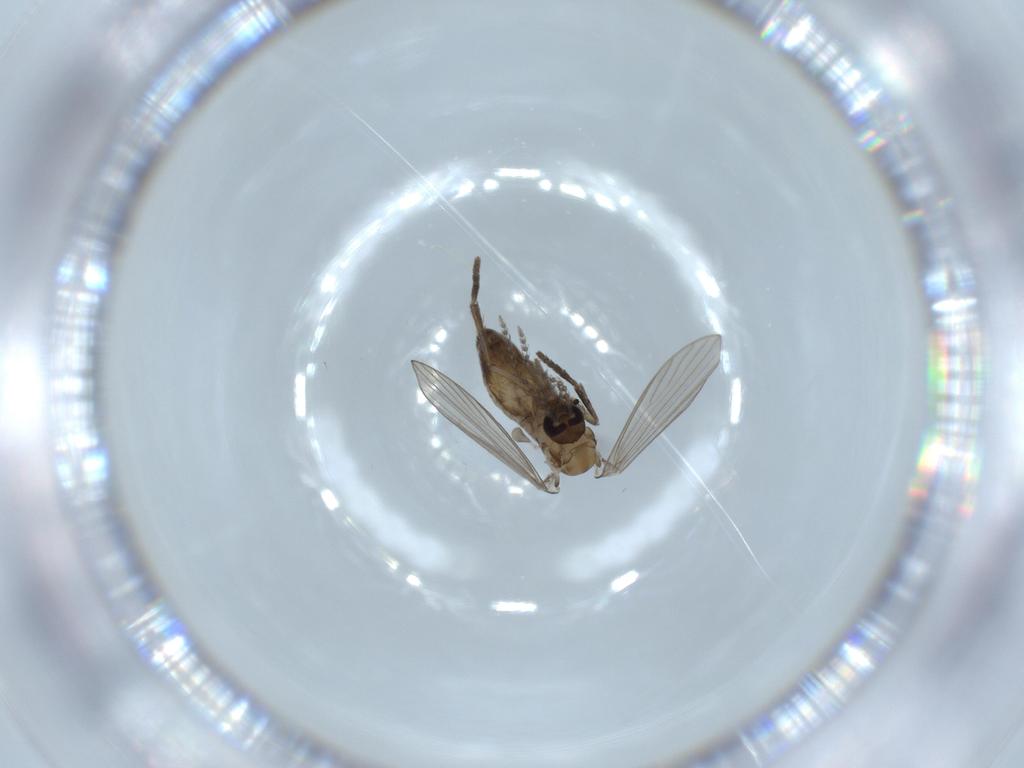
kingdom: Animalia
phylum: Arthropoda
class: Insecta
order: Diptera
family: Psychodidae
